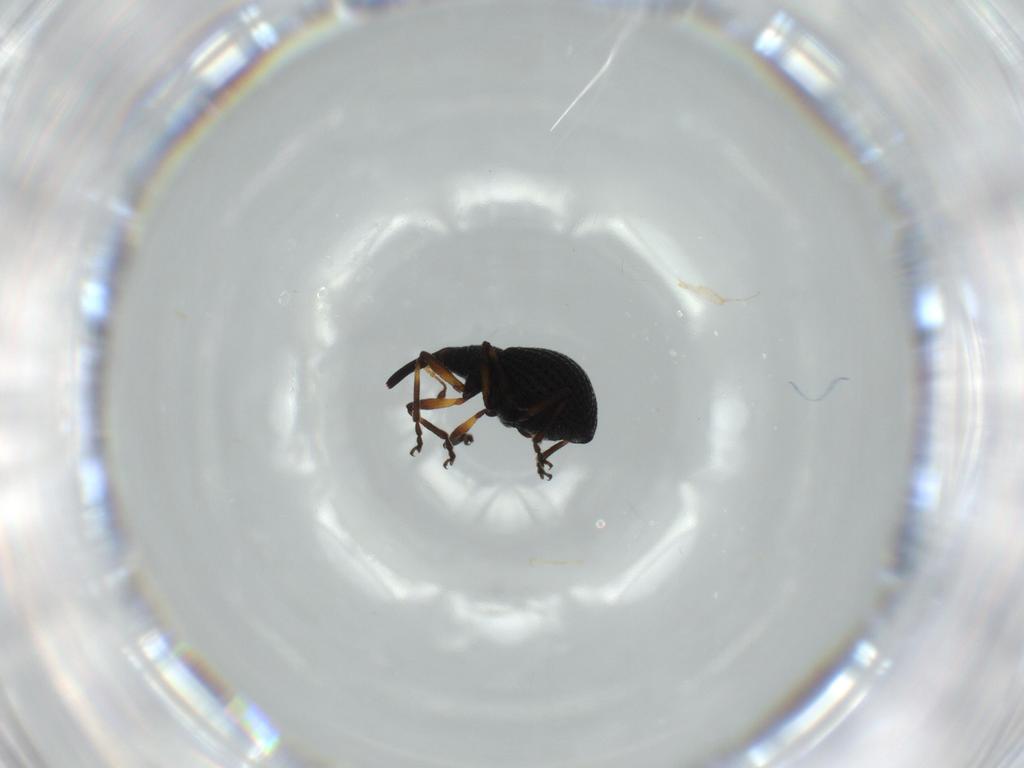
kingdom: Animalia
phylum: Arthropoda
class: Insecta
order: Coleoptera
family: Brentidae
